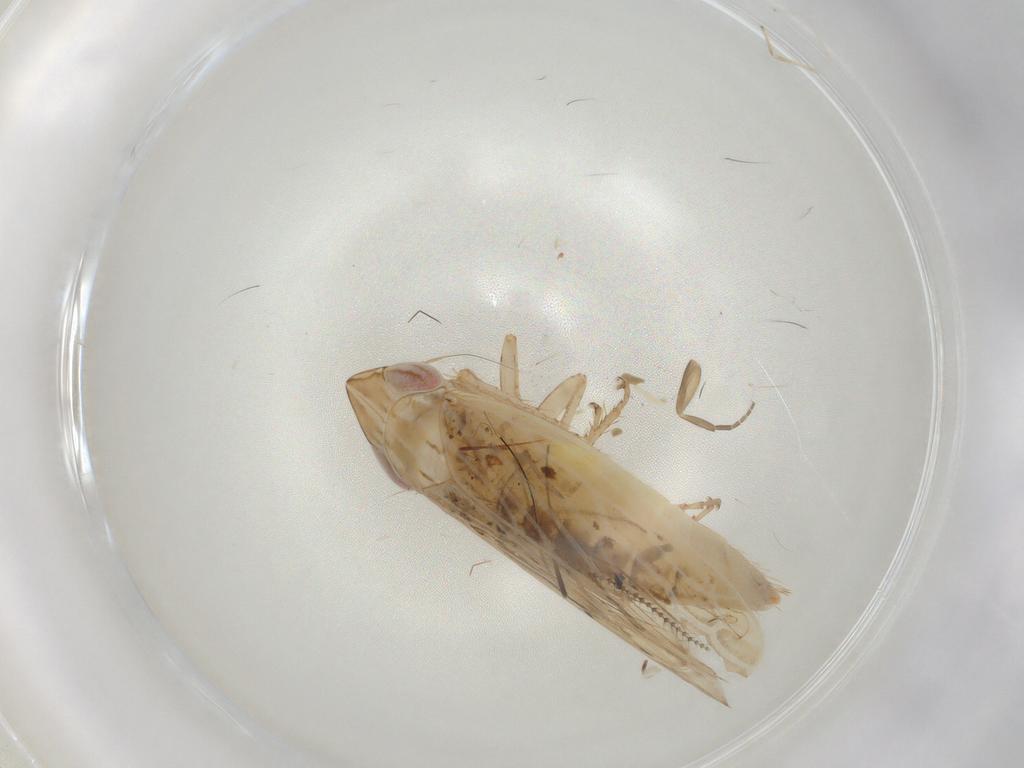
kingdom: Animalia
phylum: Arthropoda
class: Insecta
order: Hemiptera
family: Cicadellidae
